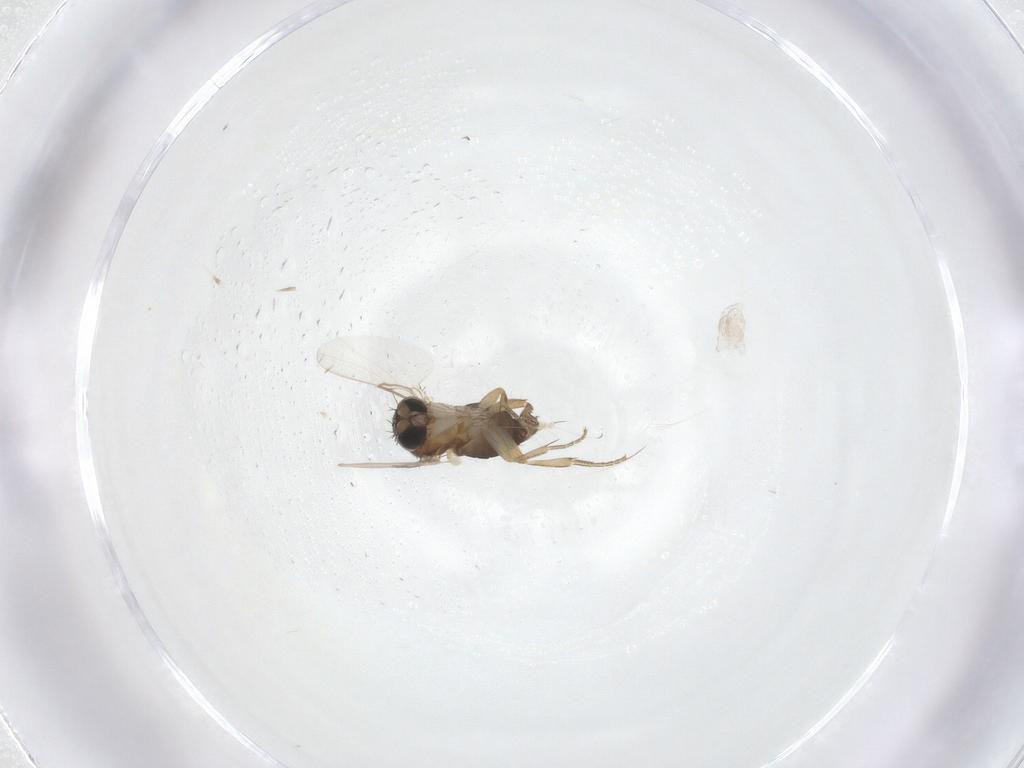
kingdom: Animalia
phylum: Arthropoda
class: Insecta
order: Diptera
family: Phoridae
